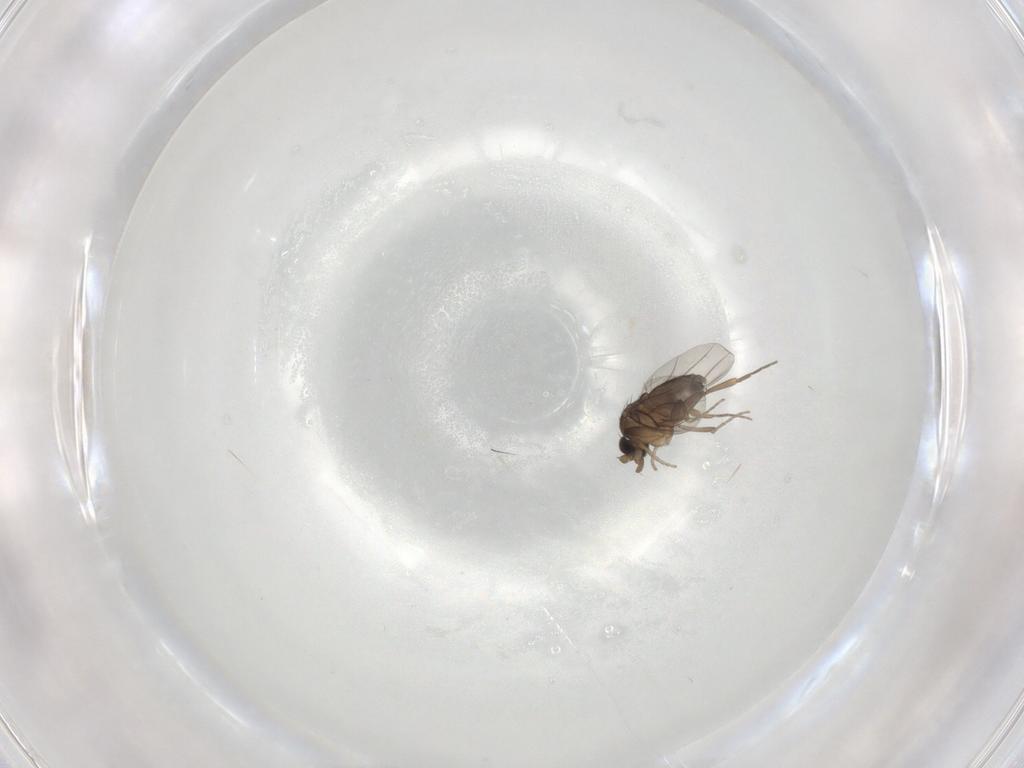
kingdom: Animalia
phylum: Arthropoda
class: Insecta
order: Diptera
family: Phoridae
